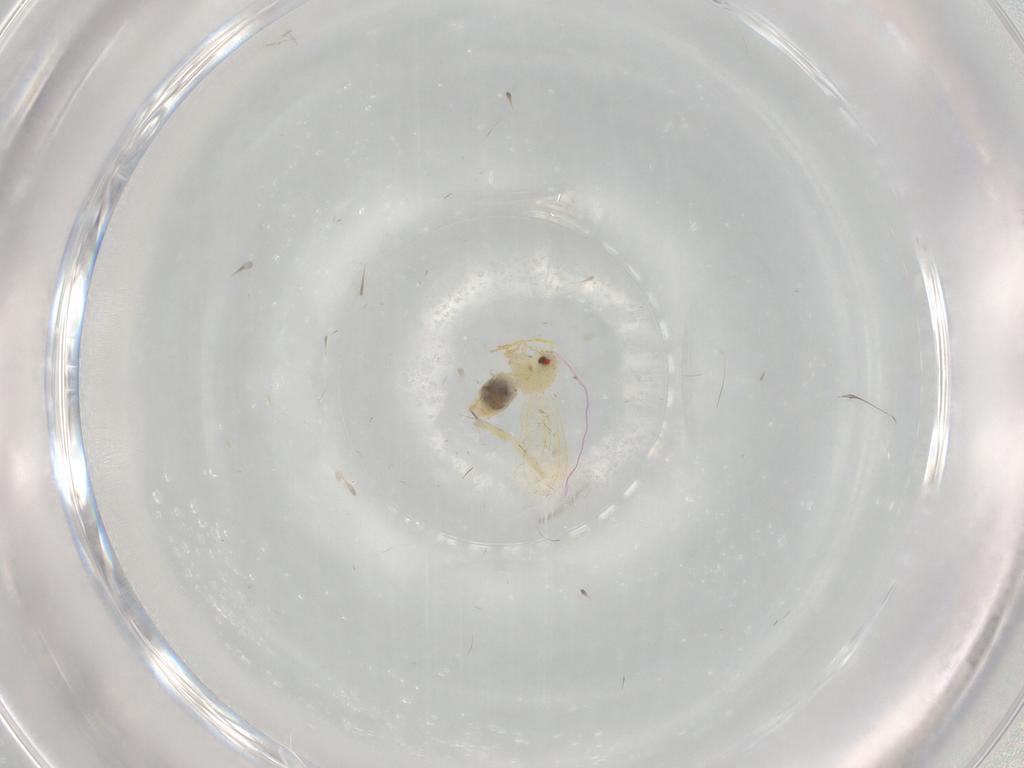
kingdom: Animalia
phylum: Arthropoda
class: Insecta
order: Hemiptera
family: Aleyrodidae
